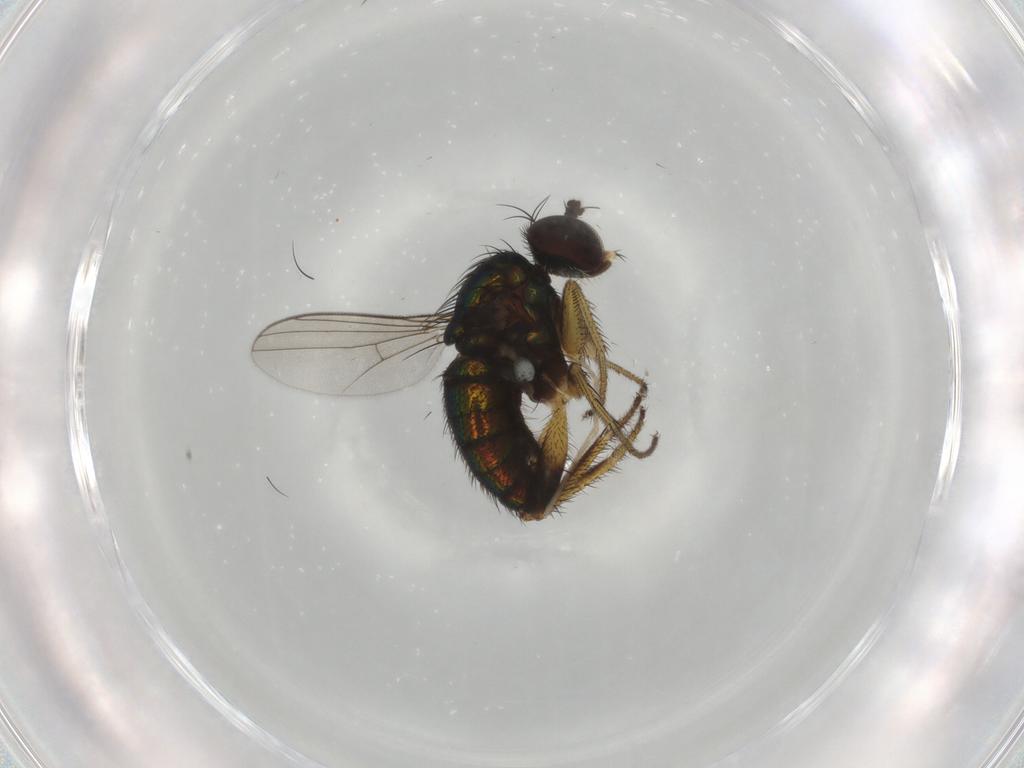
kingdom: Animalia
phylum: Arthropoda
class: Insecta
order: Diptera
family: Dolichopodidae
